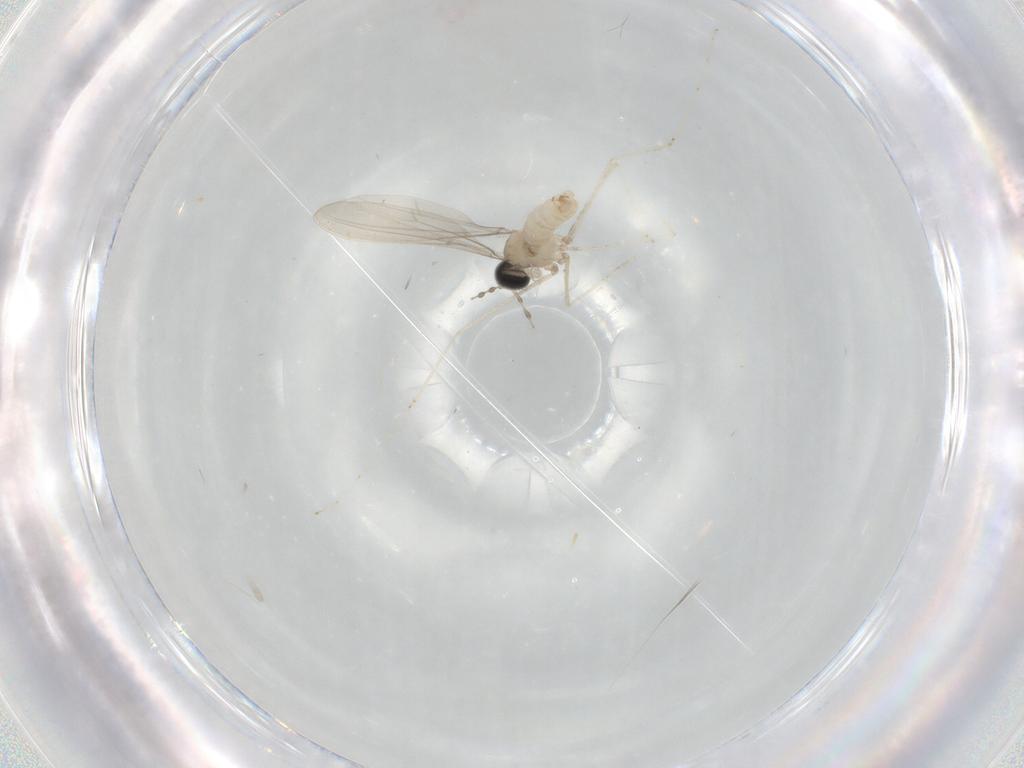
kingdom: Animalia
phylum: Arthropoda
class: Insecta
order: Diptera
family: Cecidomyiidae
